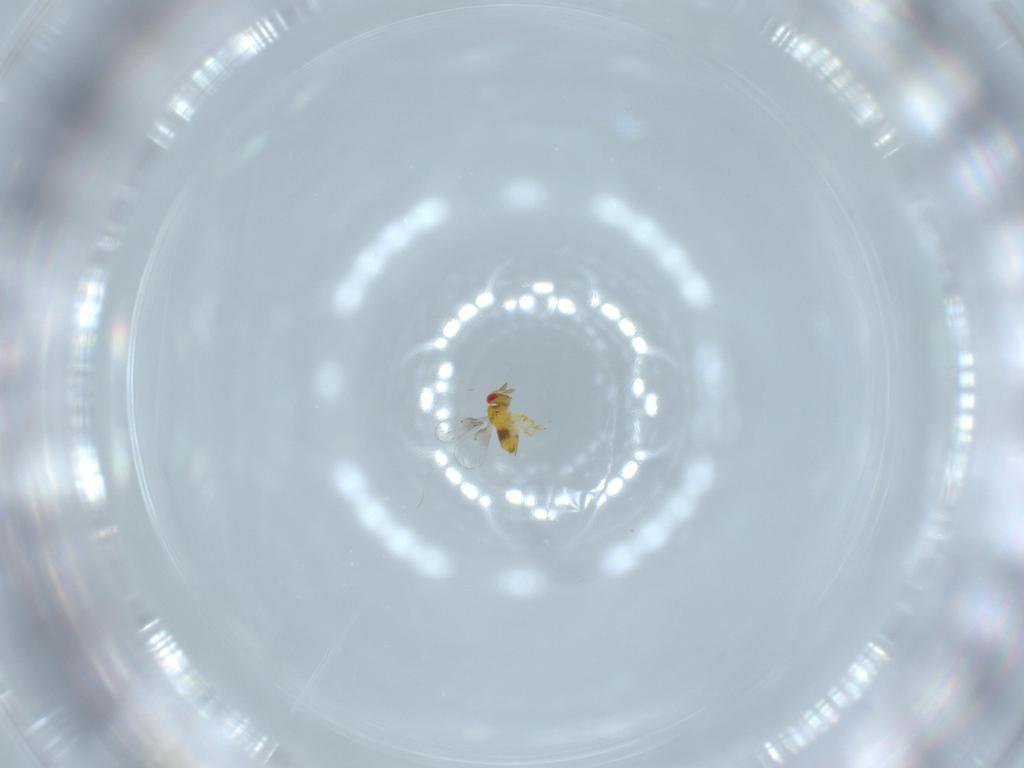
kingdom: Animalia
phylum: Arthropoda
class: Insecta
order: Hymenoptera
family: Trichogrammatidae
